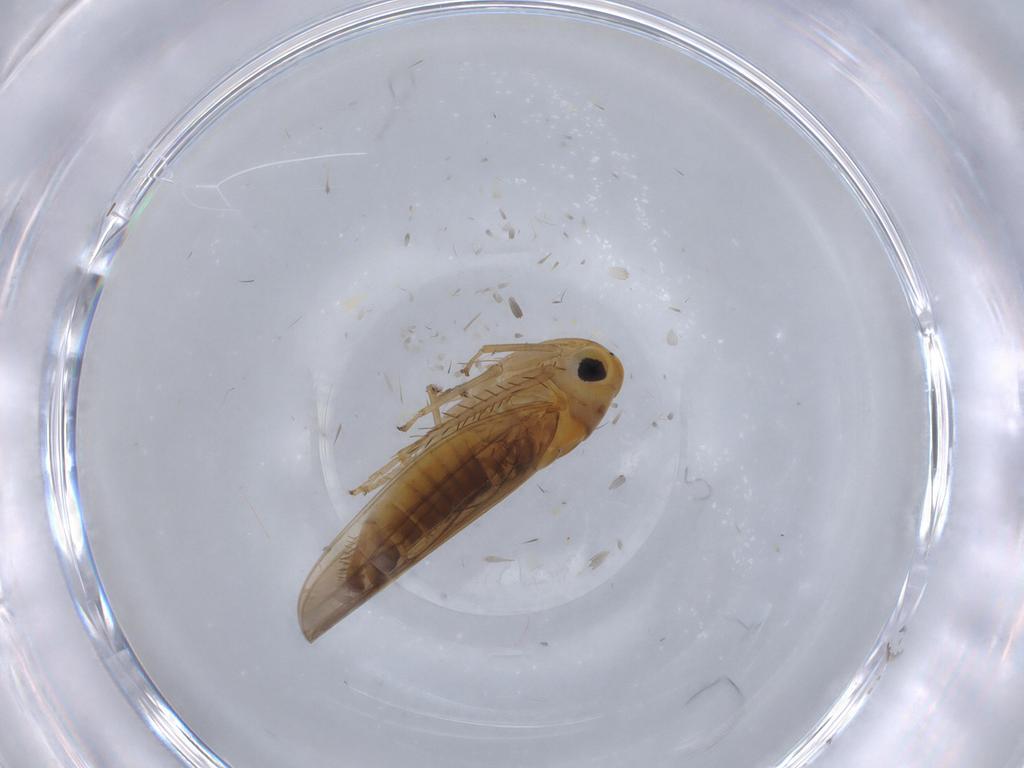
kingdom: Animalia
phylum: Arthropoda
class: Insecta
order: Hemiptera
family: Cicadellidae
